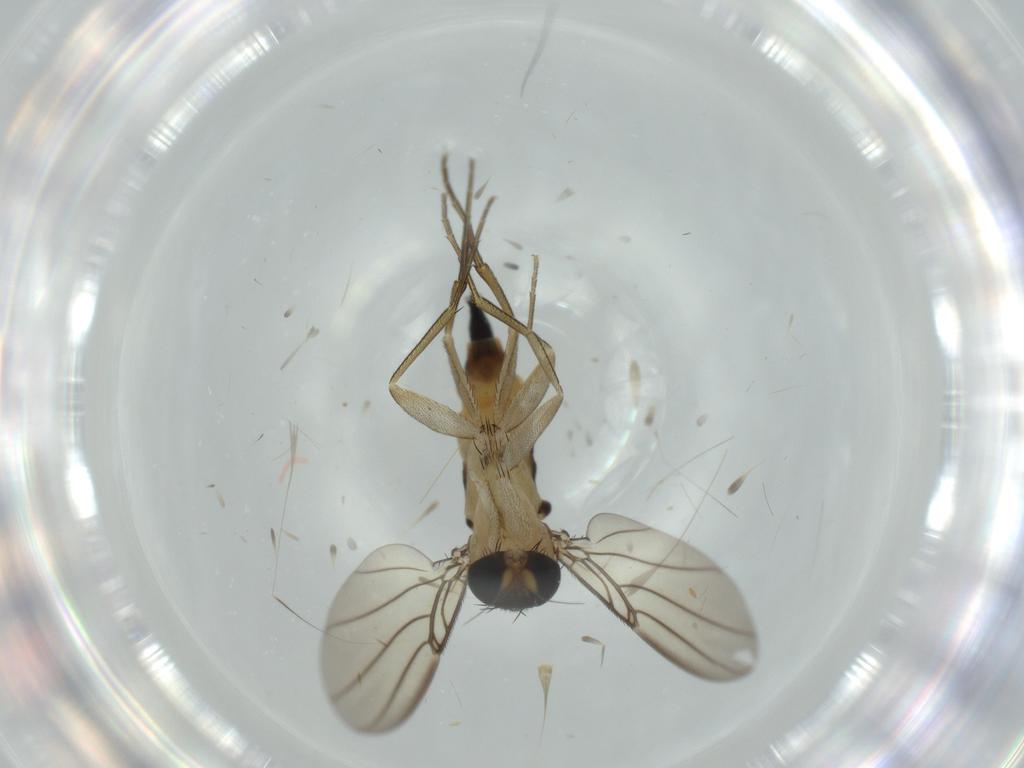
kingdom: Animalia
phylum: Arthropoda
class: Insecta
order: Diptera
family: Phoridae
